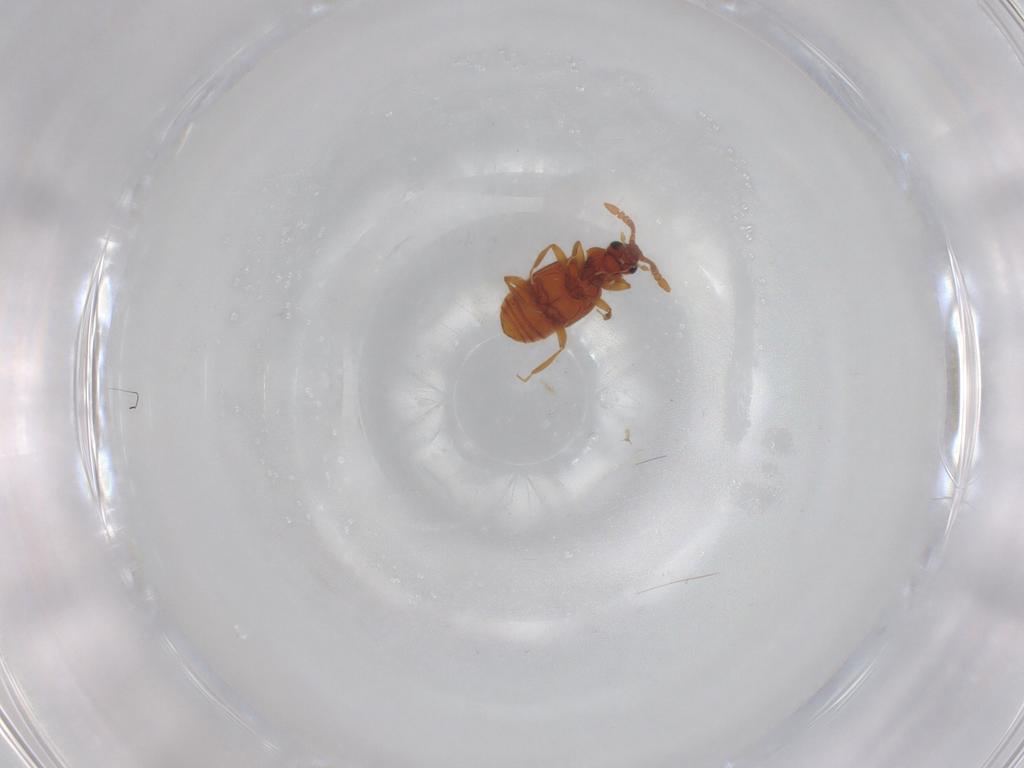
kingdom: Animalia
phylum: Arthropoda
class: Insecta
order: Coleoptera
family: Staphylinidae
